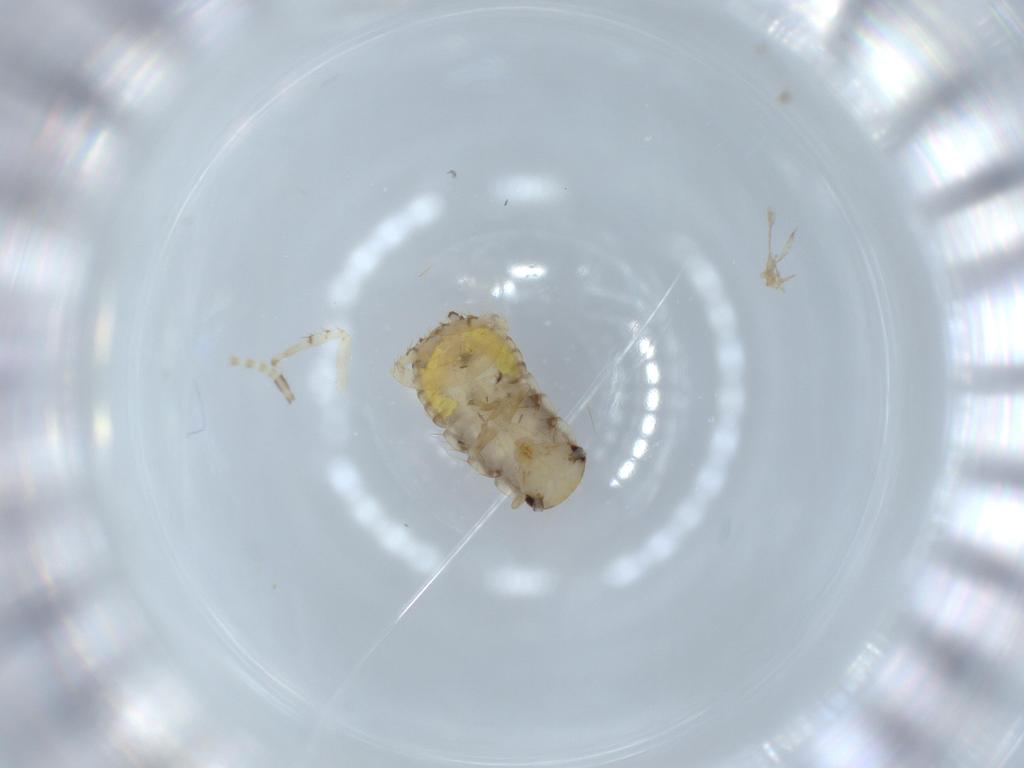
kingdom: Animalia
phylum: Arthropoda
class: Insecta
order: Blattodea
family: Ectobiidae
